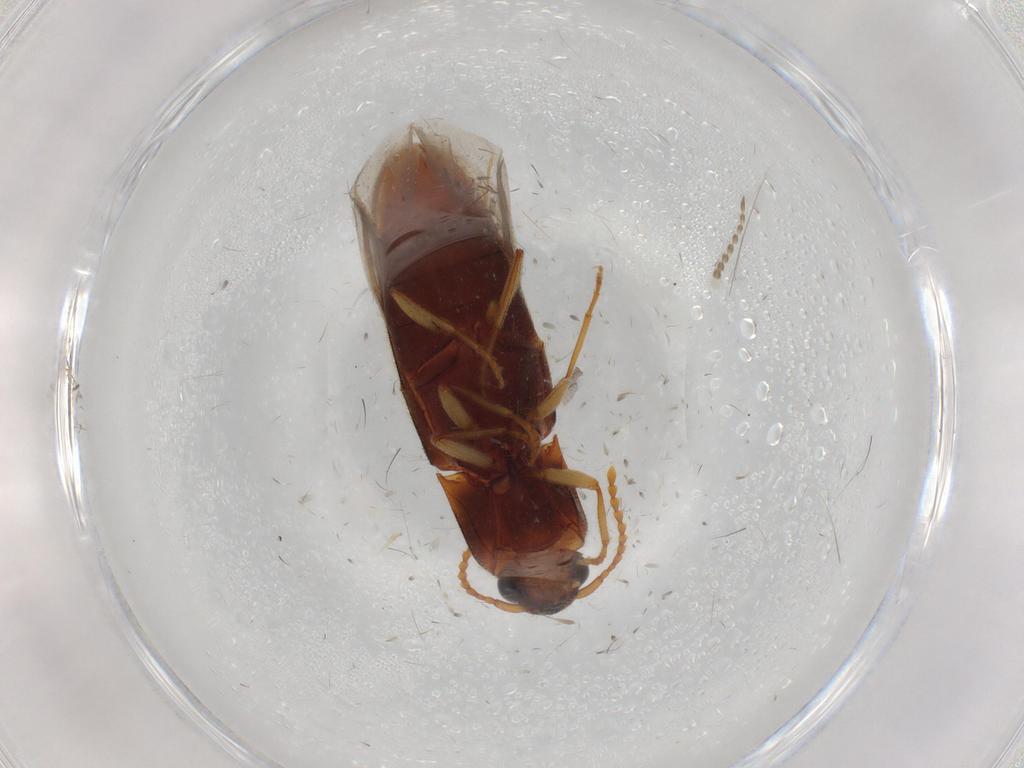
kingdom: Animalia
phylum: Arthropoda
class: Insecta
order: Coleoptera
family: Elateridae
